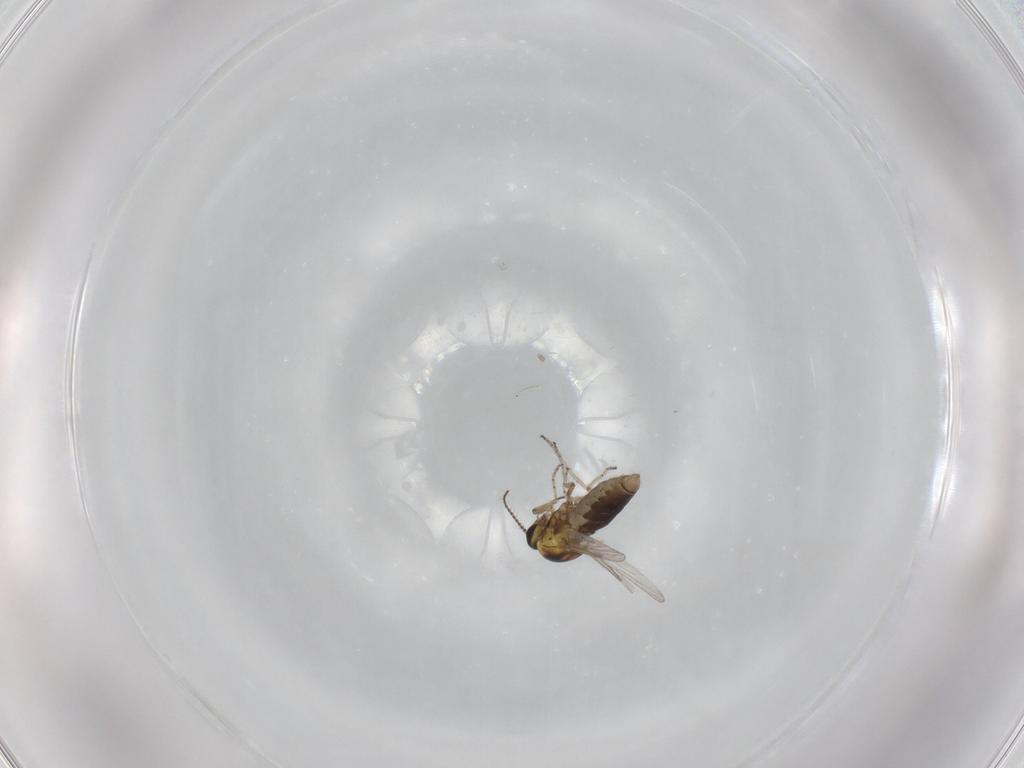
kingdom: Animalia
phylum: Arthropoda
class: Insecta
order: Diptera
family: Ceratopogonidae
